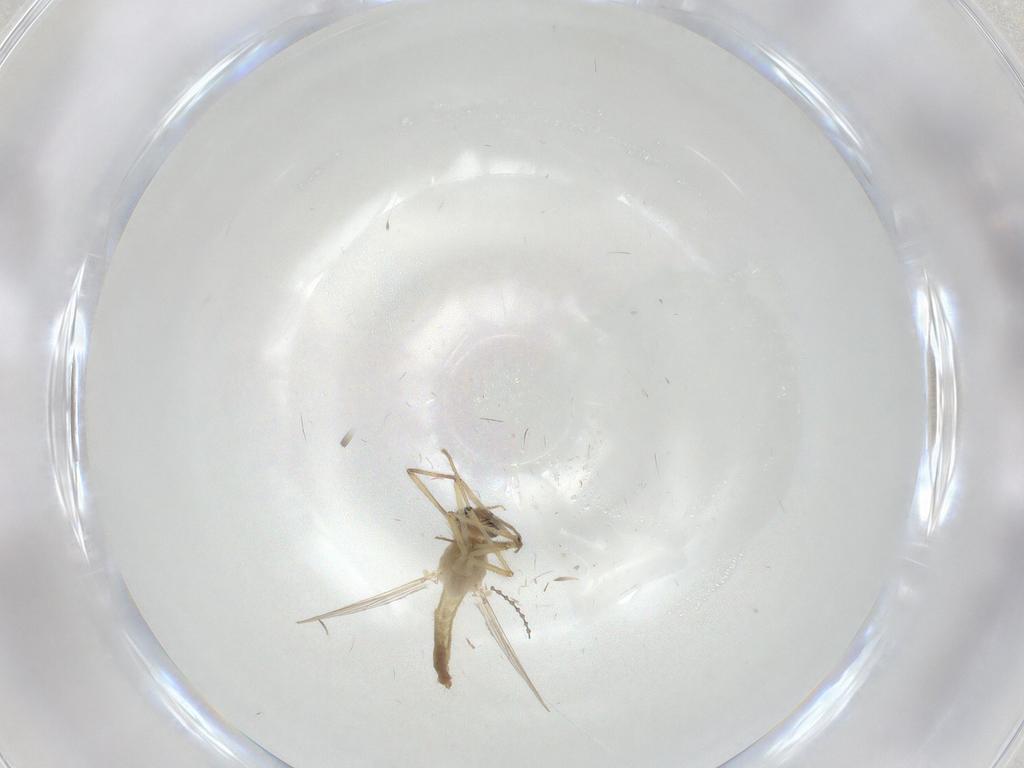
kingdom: Animalia
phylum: Arthropoda
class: Insecta
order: Diptera
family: Chironomidae
